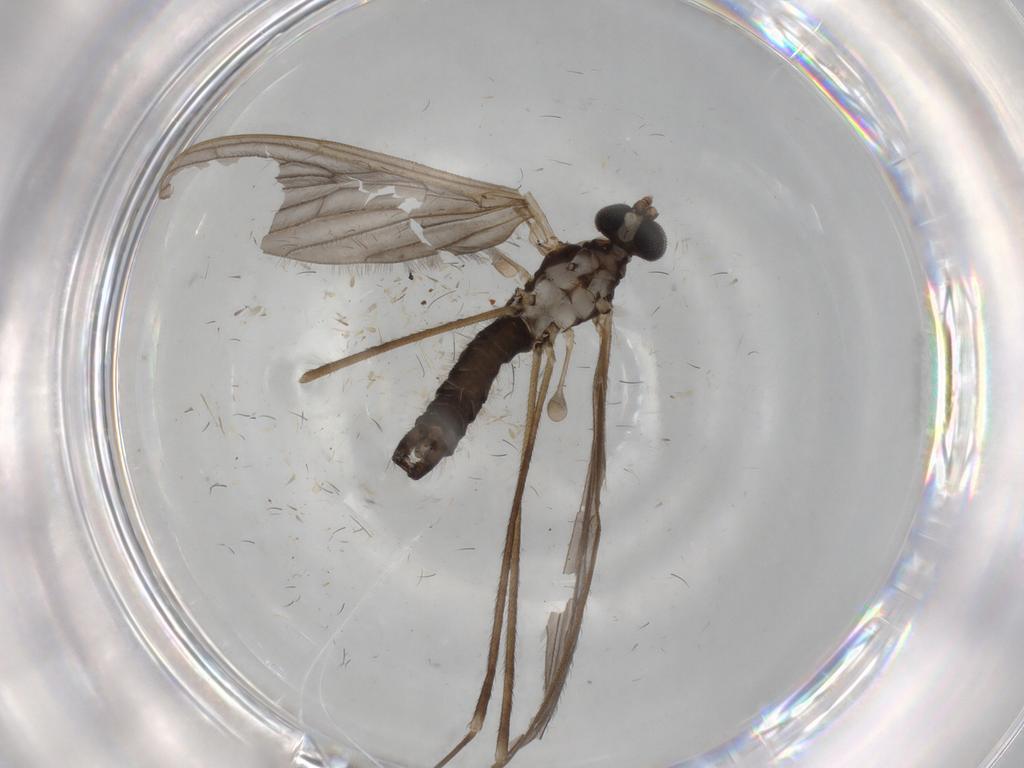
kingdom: Animalia
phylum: Arthropoda
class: Insecta
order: Diptera
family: Psychodidae
